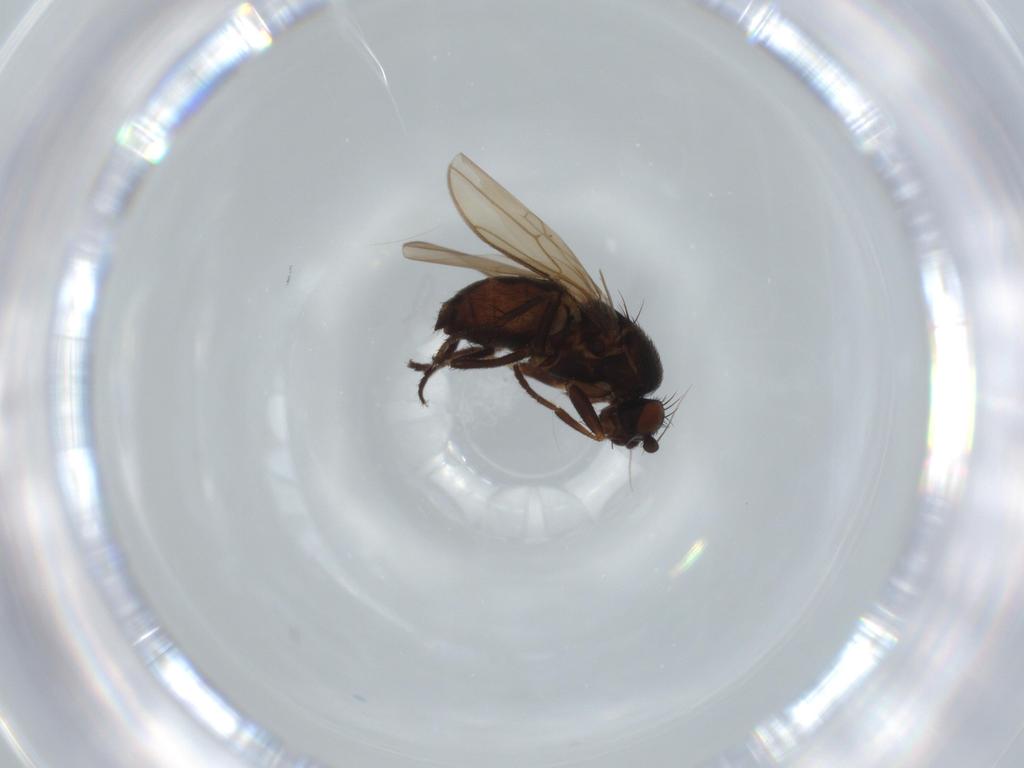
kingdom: Animalia
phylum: Arthropoda
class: Insecta
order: Diptera
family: Sphaeroceridae
